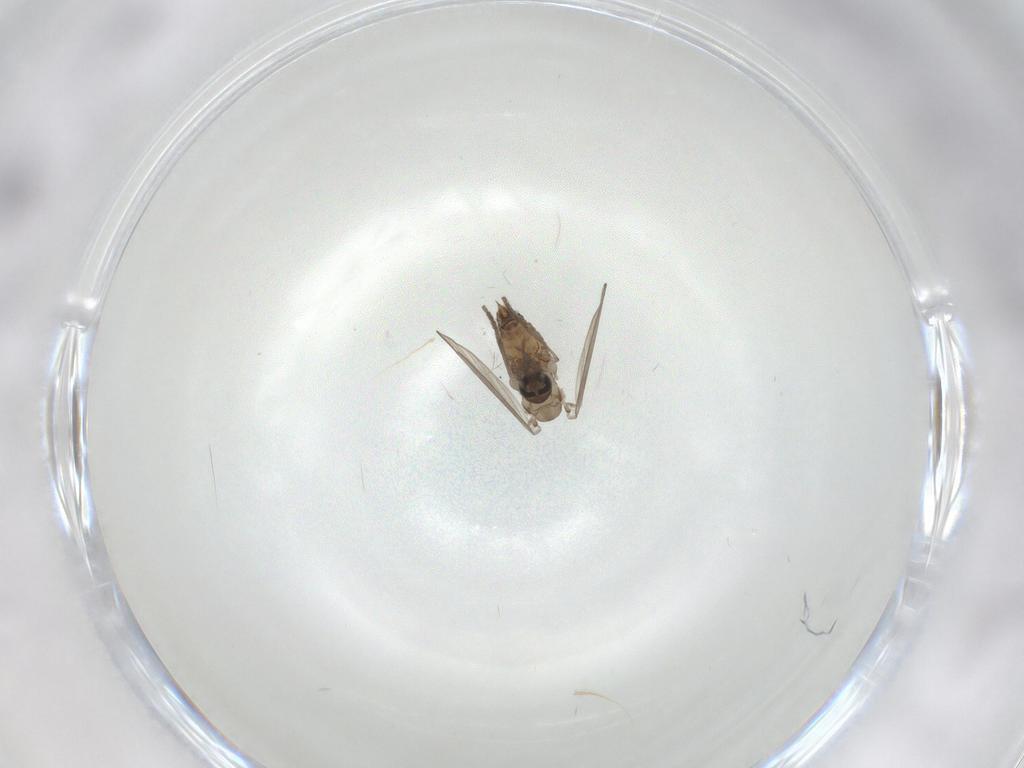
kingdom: Animalia
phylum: Arthropoda
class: Insecta
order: Diptera
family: Psychodidae
